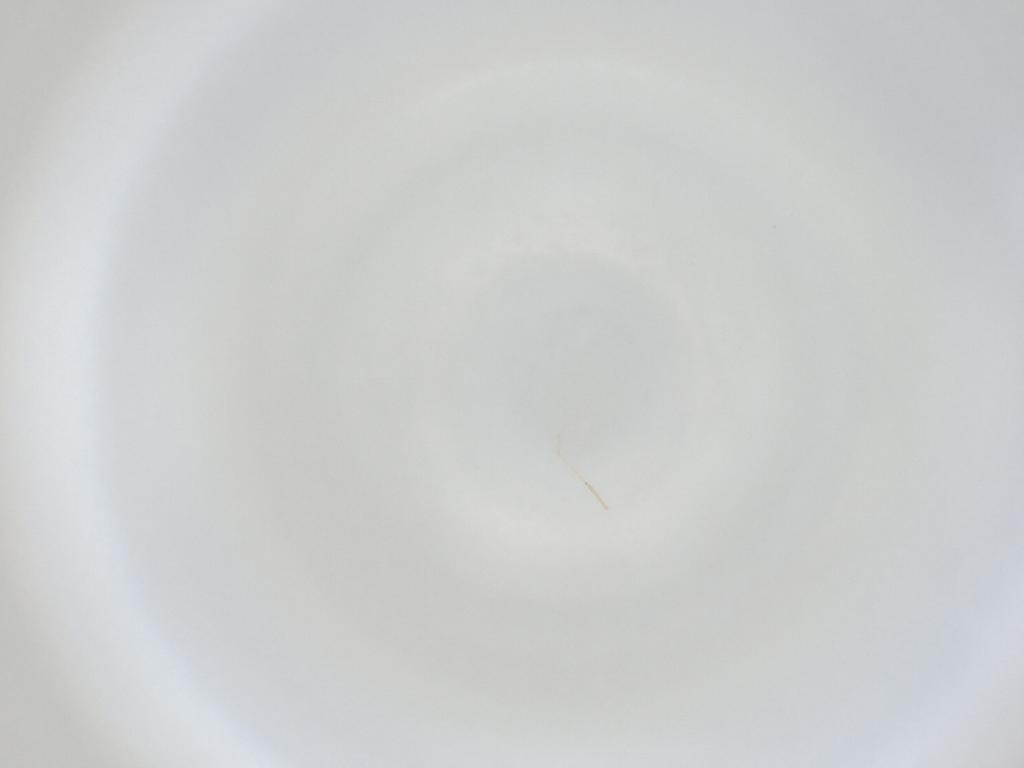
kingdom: Animalia
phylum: Arthropoda
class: Insecta
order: Diptera
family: Cecidomyiidae
